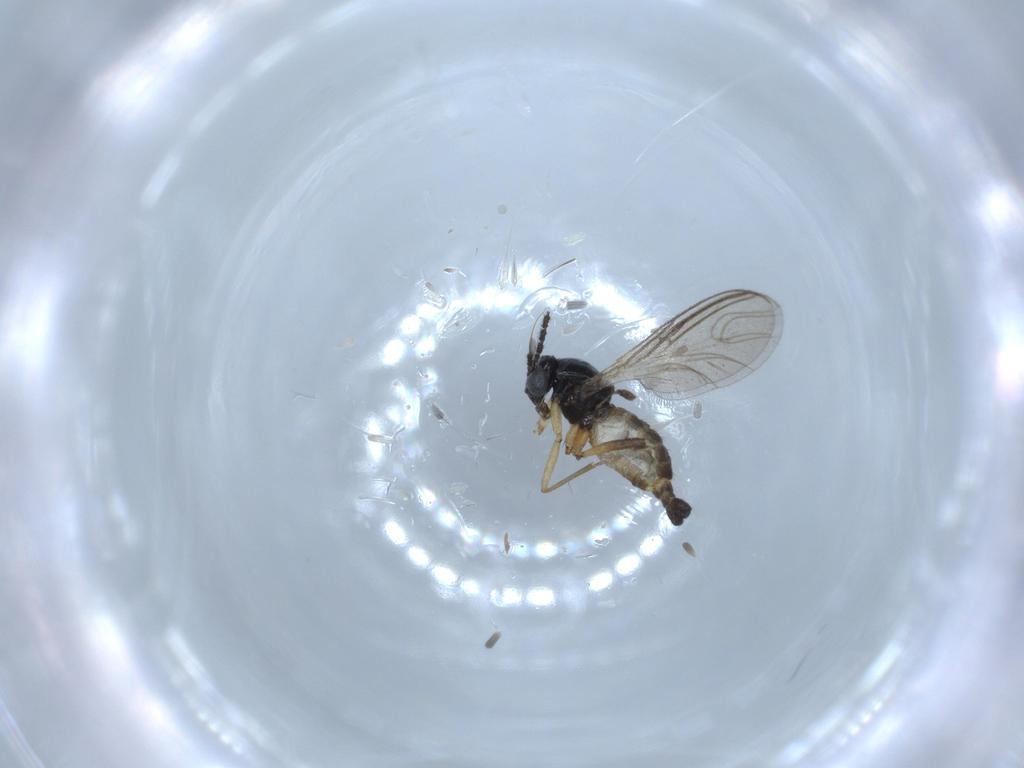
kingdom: Animalia
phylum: Arthropoda
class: Insecta
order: Diptera
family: Sciaridae
